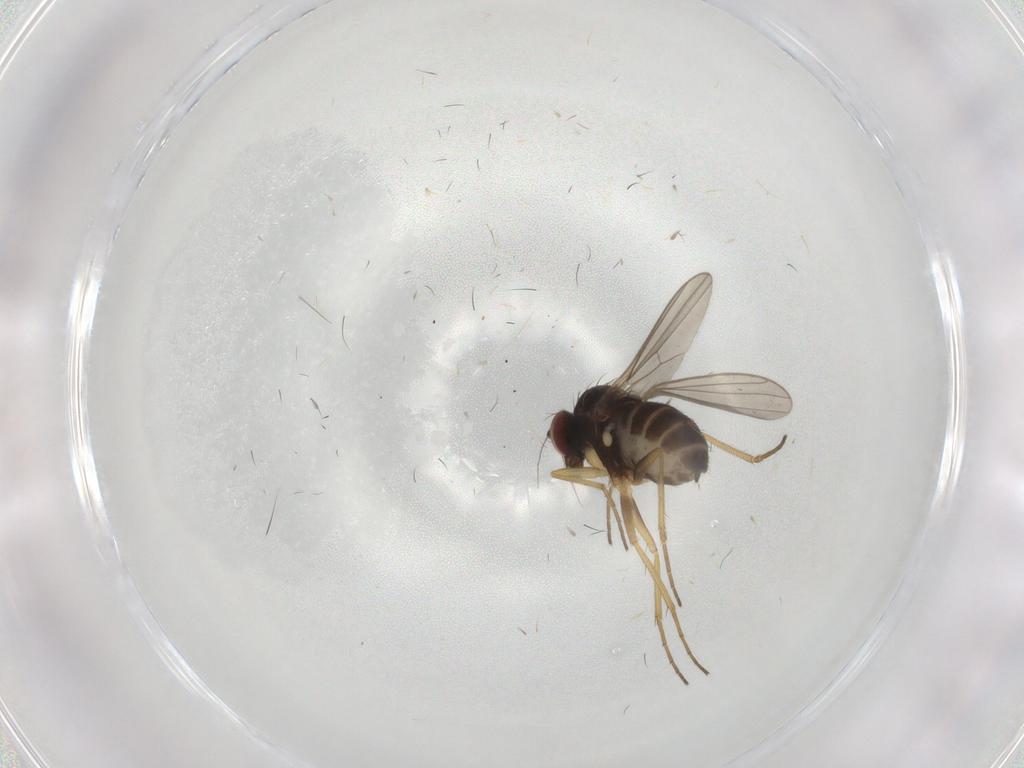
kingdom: Animalia
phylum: Arthropoda
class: Insecta
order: Diptera
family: Dolichopodidae
